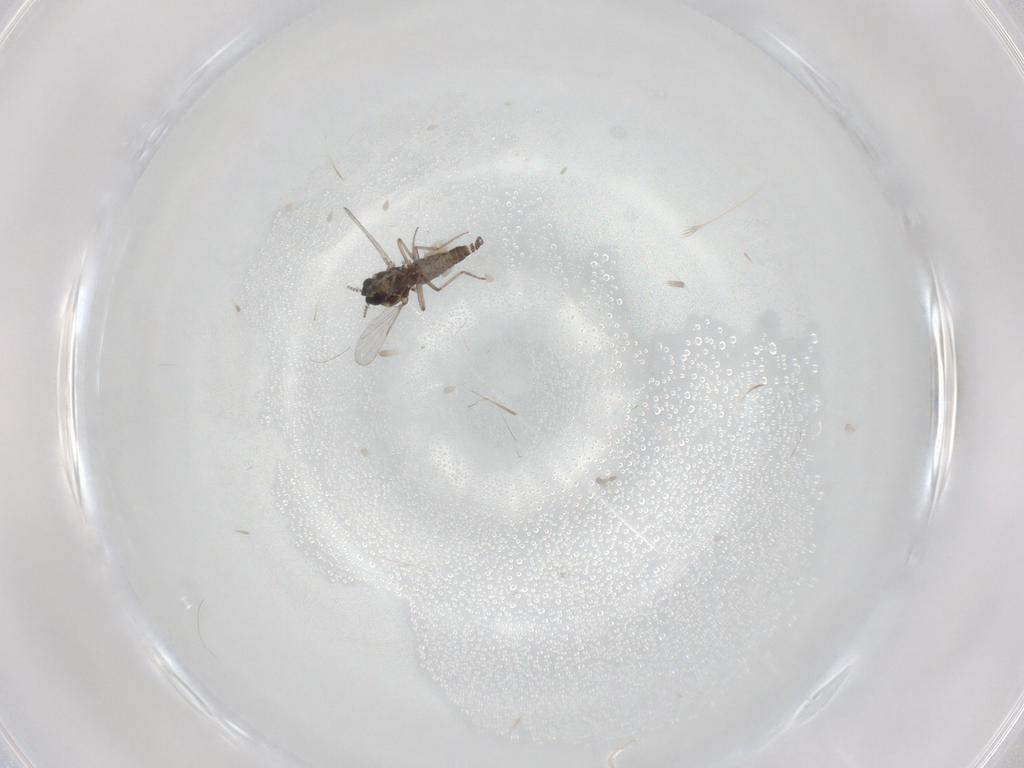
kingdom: Animalia
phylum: Arthropoda
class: Insecta
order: Diptera
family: Ceratopogonidae
